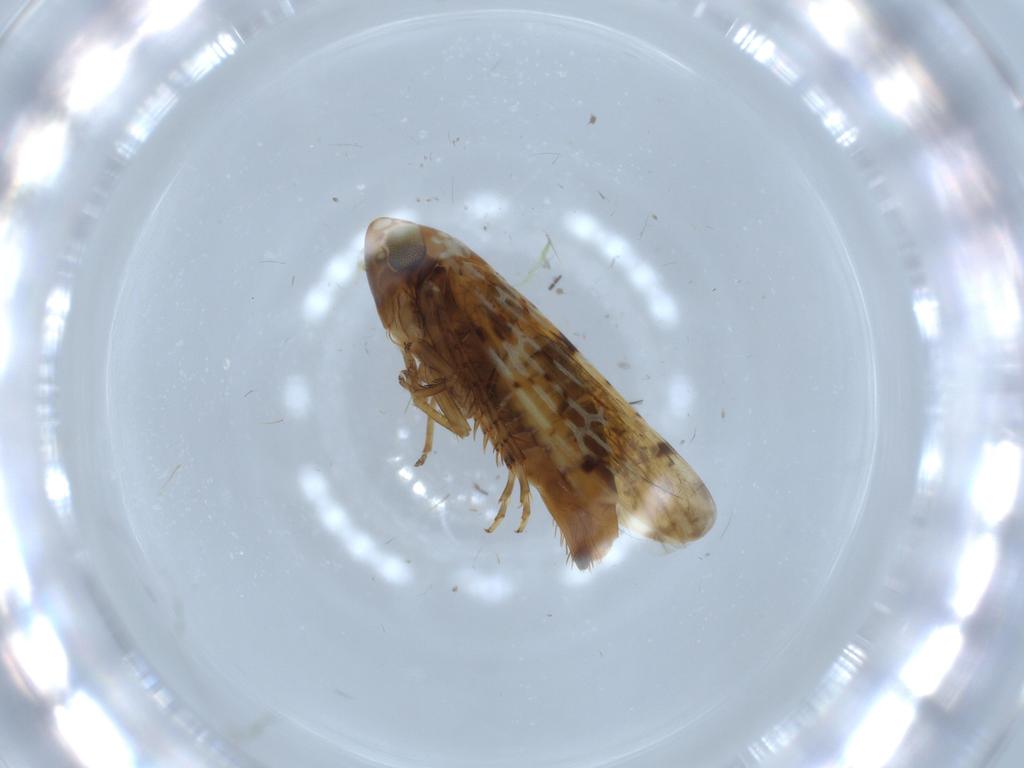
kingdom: Animalia
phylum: Arthropoda
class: Insecta
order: Hemiptera
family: Cicadellidae
